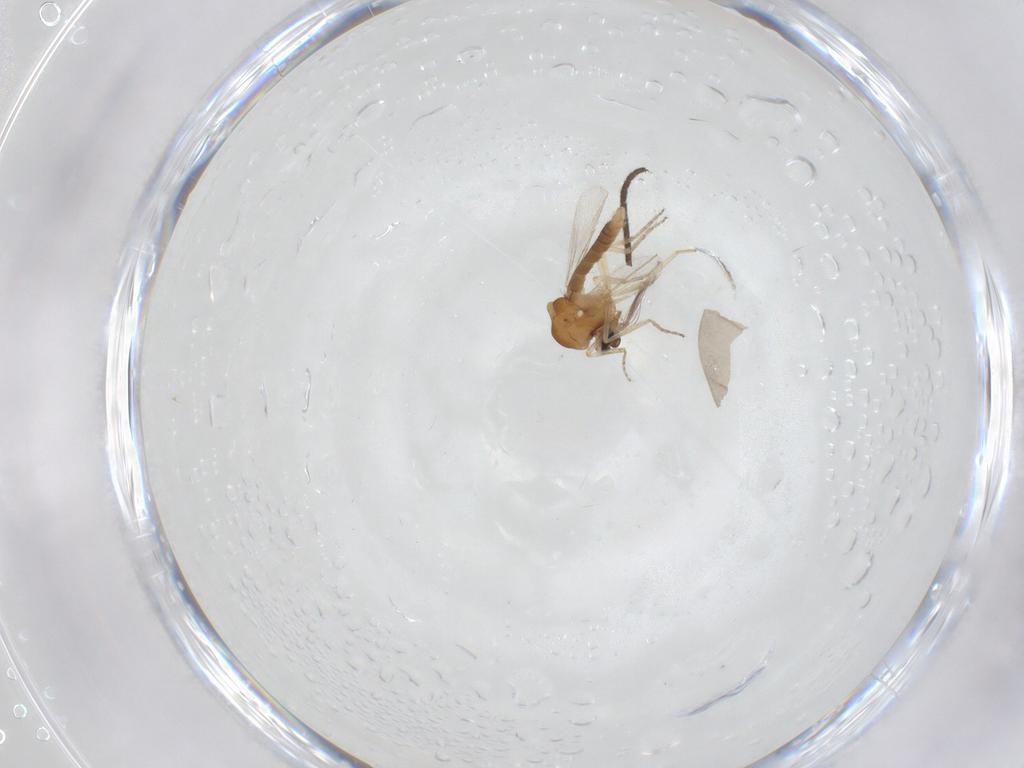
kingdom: Animalia
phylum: Arthropoda
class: Insecta
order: Diptera
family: Ceratopogonidae
